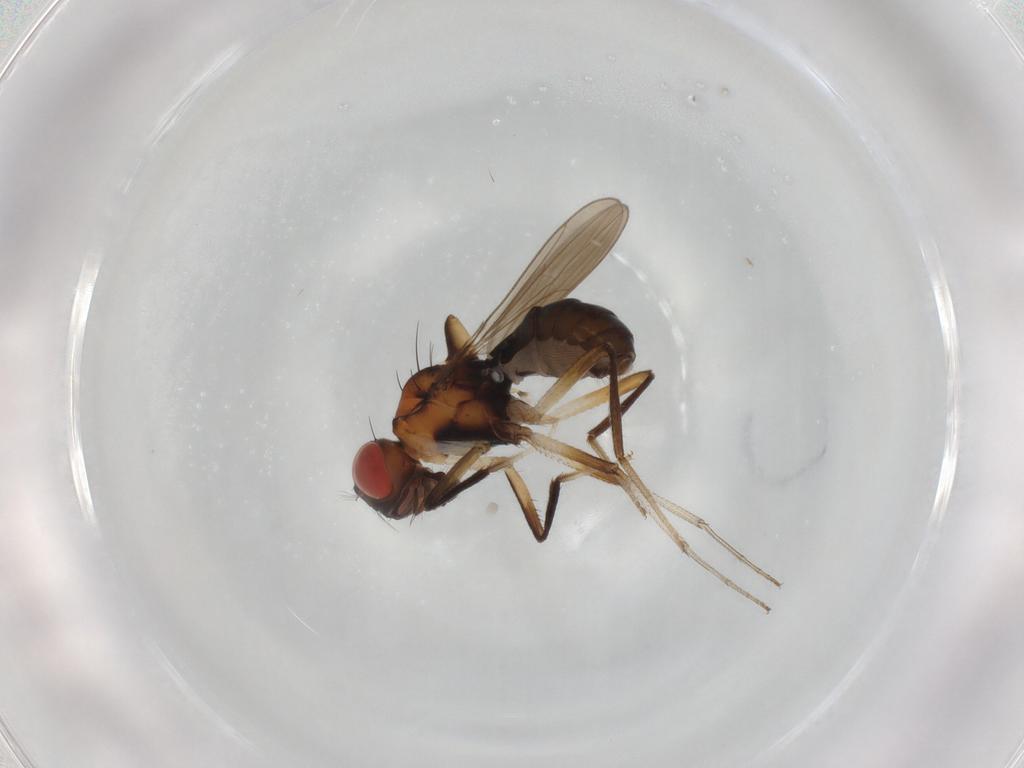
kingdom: Animalia
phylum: Arthropoda
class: Insecta
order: Diptera
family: Drosophilidae
